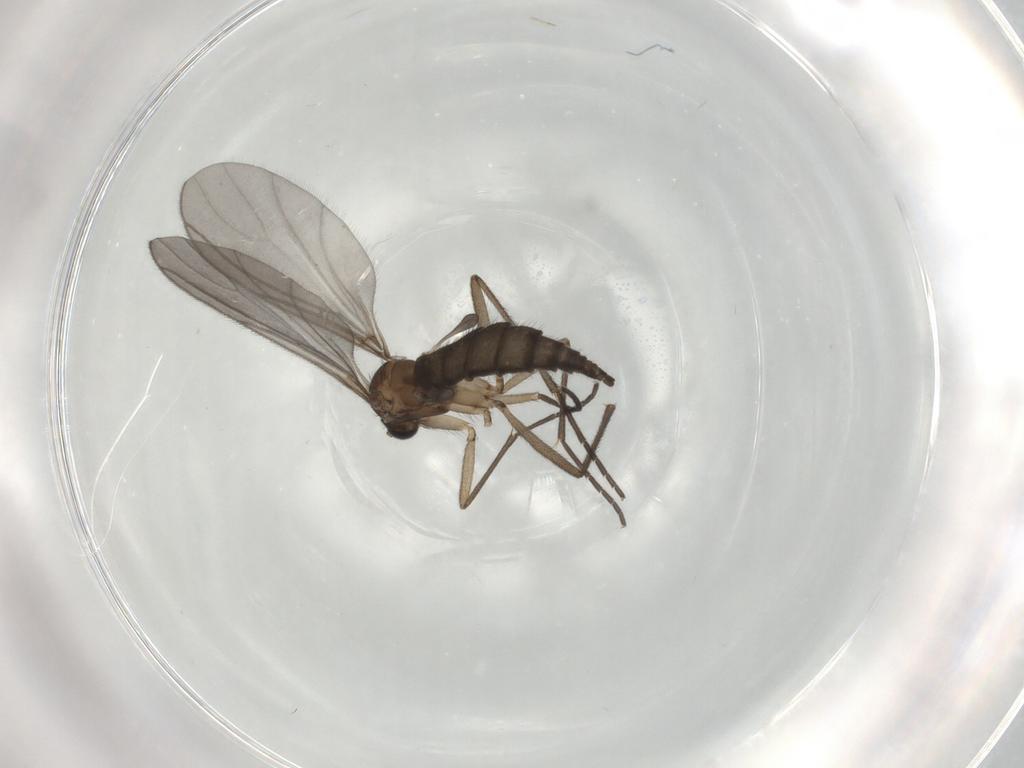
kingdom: Animalia
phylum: Arthropoda
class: Insecta
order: Diptera
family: Sciaridae
